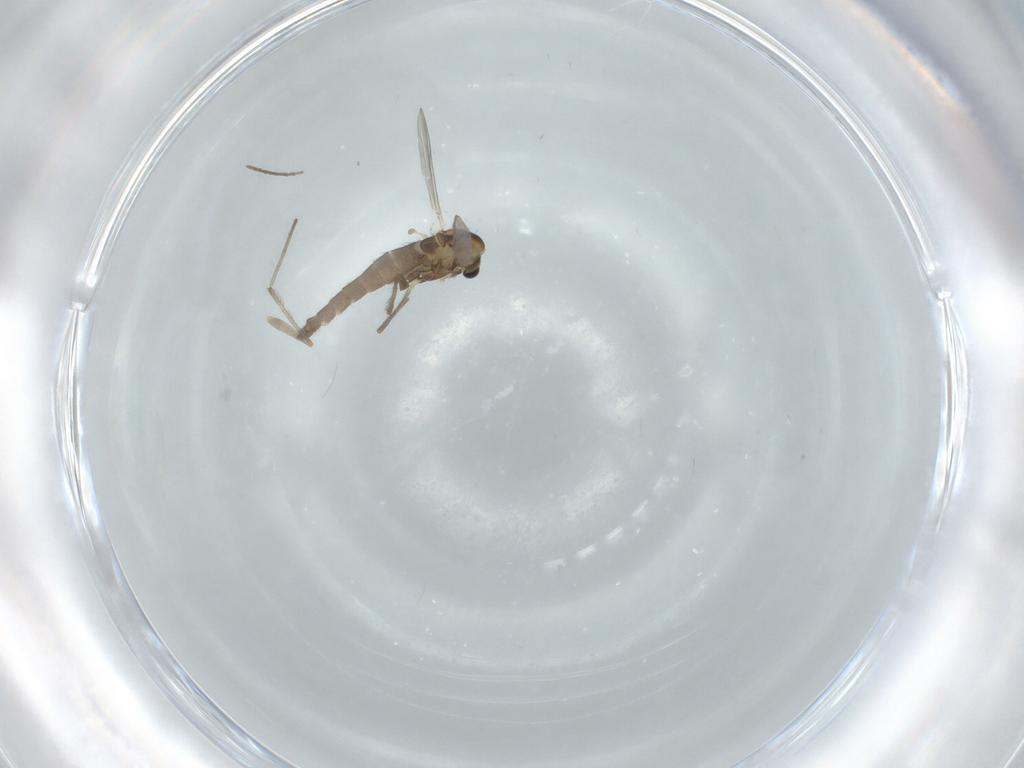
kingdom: Animalia
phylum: Arthropoda
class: Insecta
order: Diptera
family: Chironomidae
